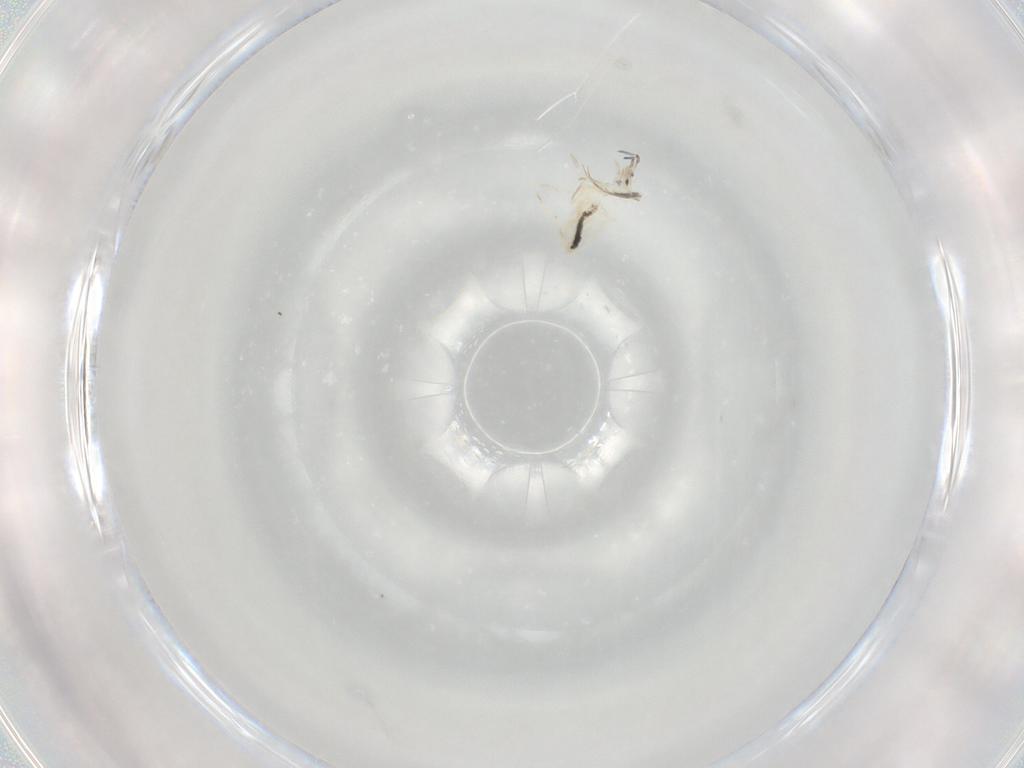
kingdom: Animalia
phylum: Arthropoda
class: Collembola
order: Entomobryomorpha
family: Entomobryidae
